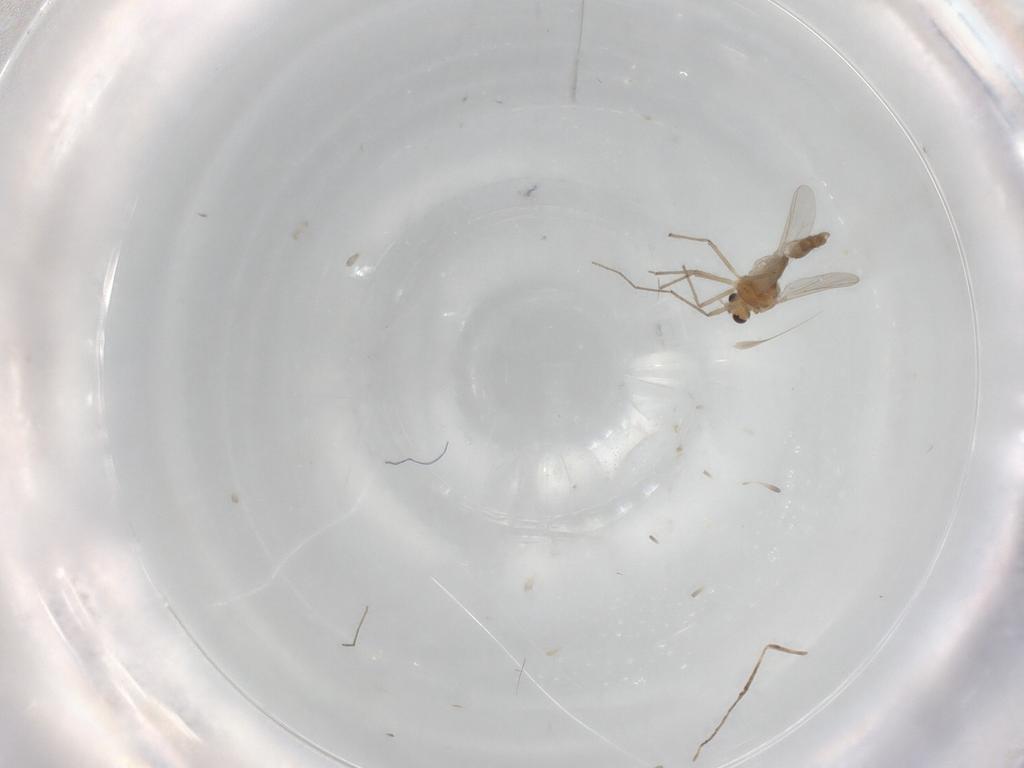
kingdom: Animalia
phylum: Arthropoda
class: Insecta
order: Diptera
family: Chironomidae
